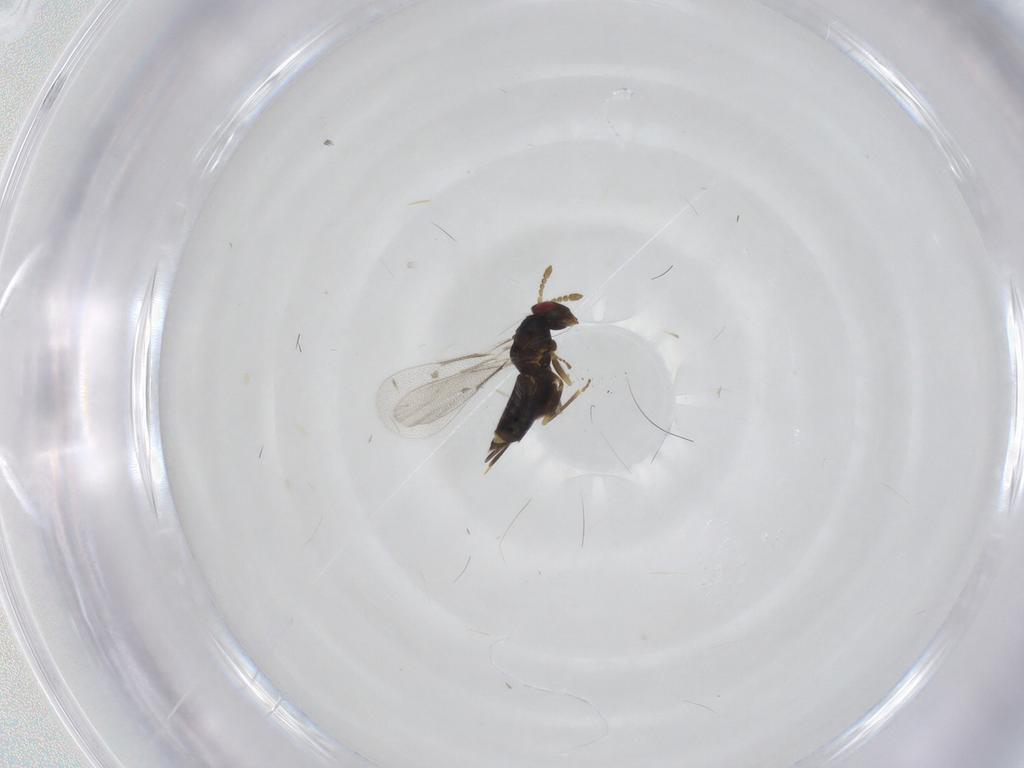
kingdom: Animalia
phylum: Arthropoda
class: Insecta
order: Hymenoptera
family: Eulophidae
